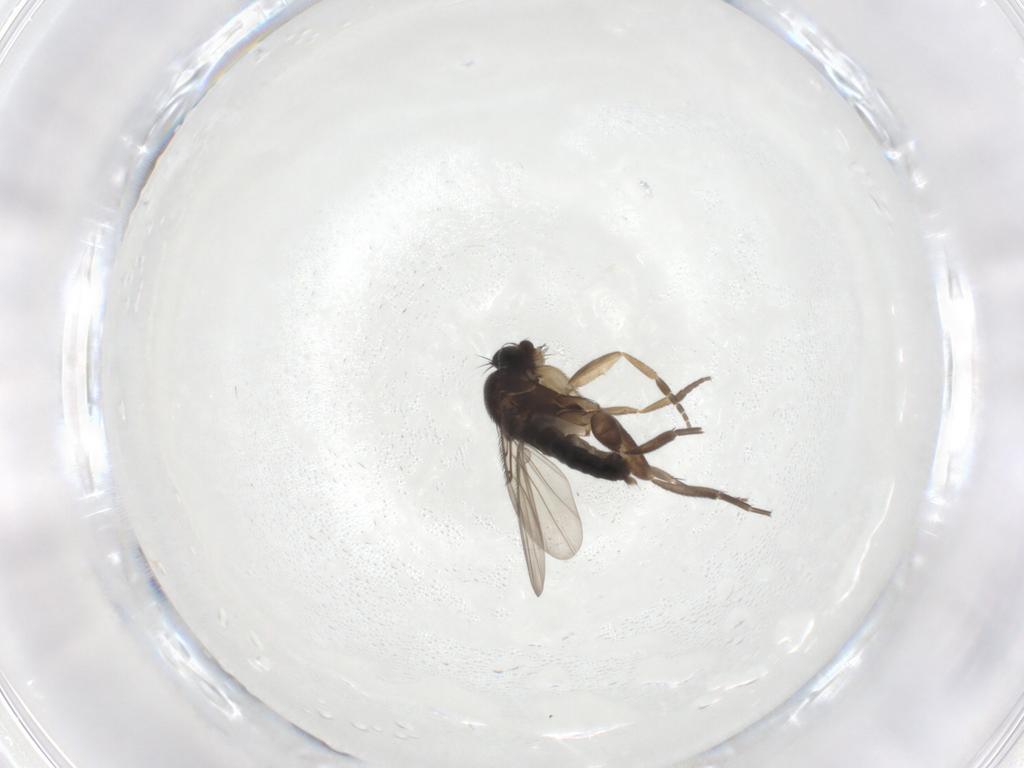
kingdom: Animalia
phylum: Arthropoda
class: Insecta
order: Diptera
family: Phoridae
